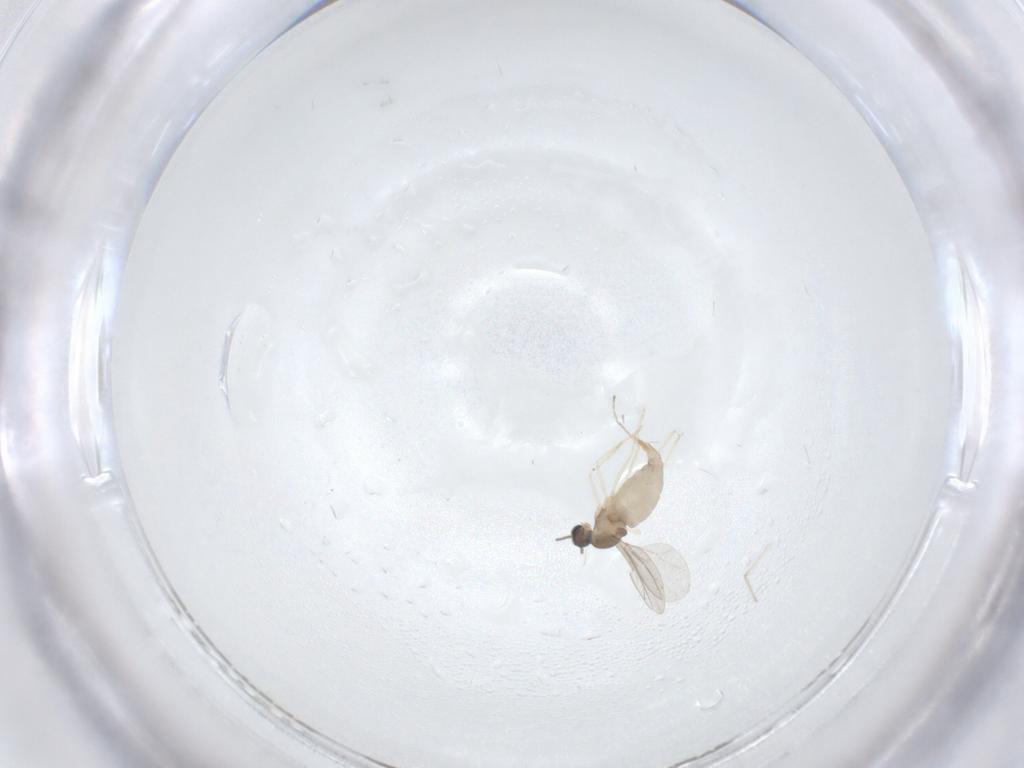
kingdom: Animalia
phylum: Arthropoda
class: Insecta
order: Diptera
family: Cecidomyiidae
